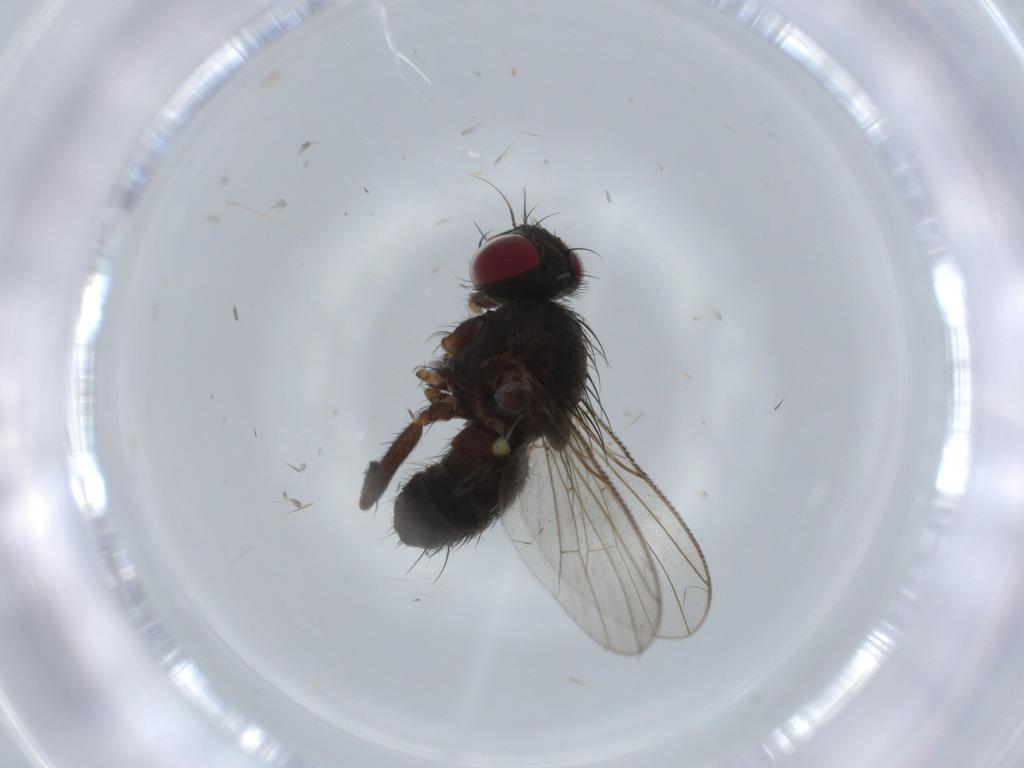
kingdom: Animalia
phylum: Arthropoda
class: Insecta
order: Diptera
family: Muscidae
